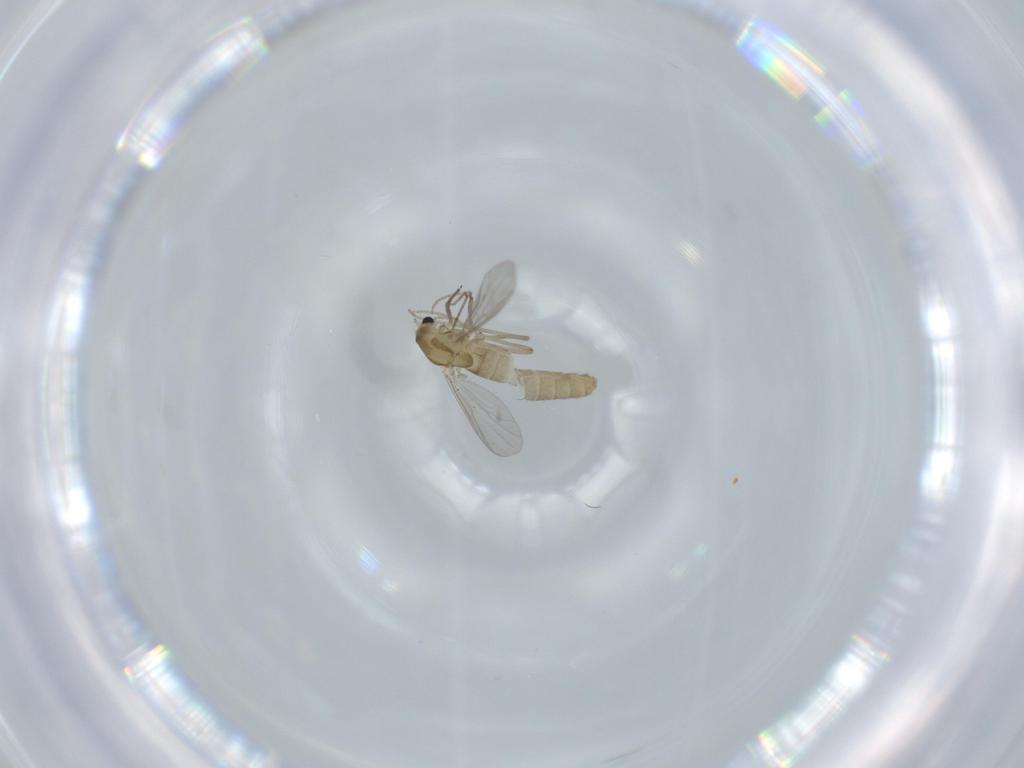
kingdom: Animalia
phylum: Arthropoda
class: Insecta
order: Diptera
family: Chironomidae
